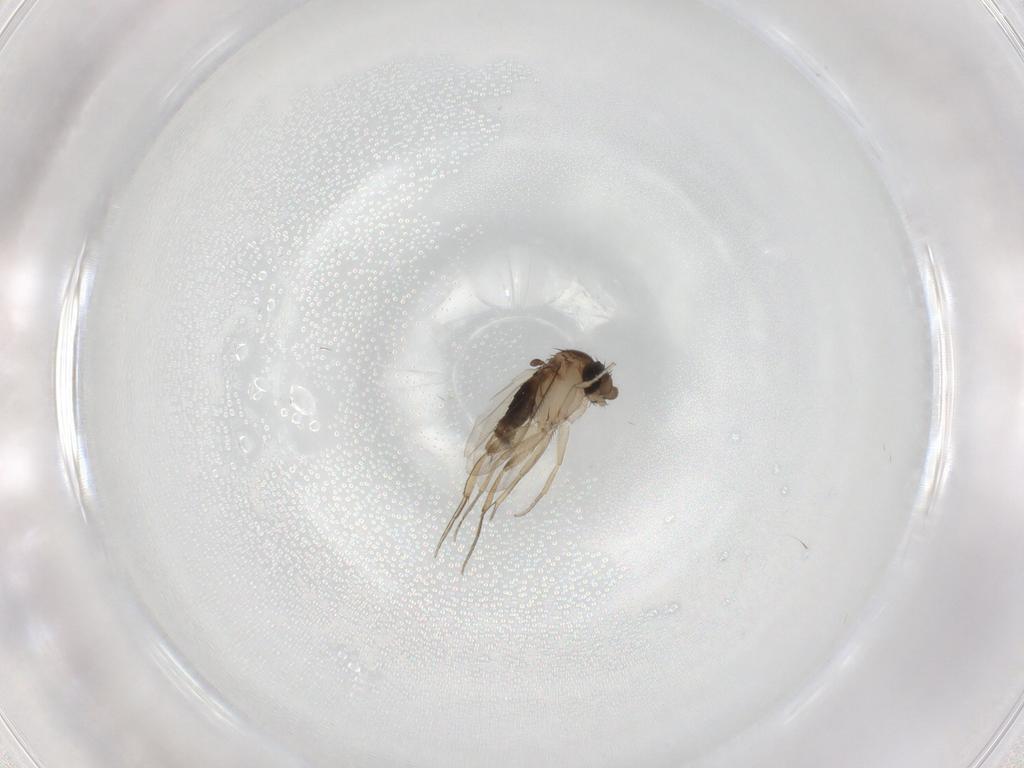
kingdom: Animalia
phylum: Arthropoda
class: Insecta
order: Diptera
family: Phoridae
